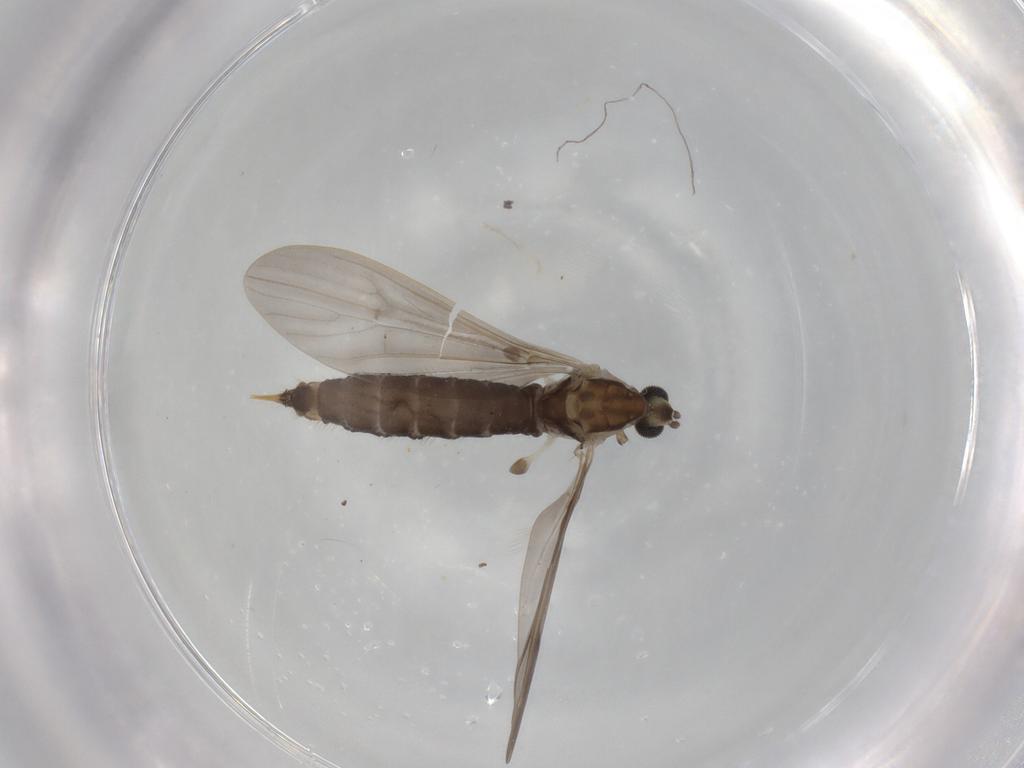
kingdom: Animalia
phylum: Arthropoda
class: Insecta
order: Diptera
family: Limoniidae
